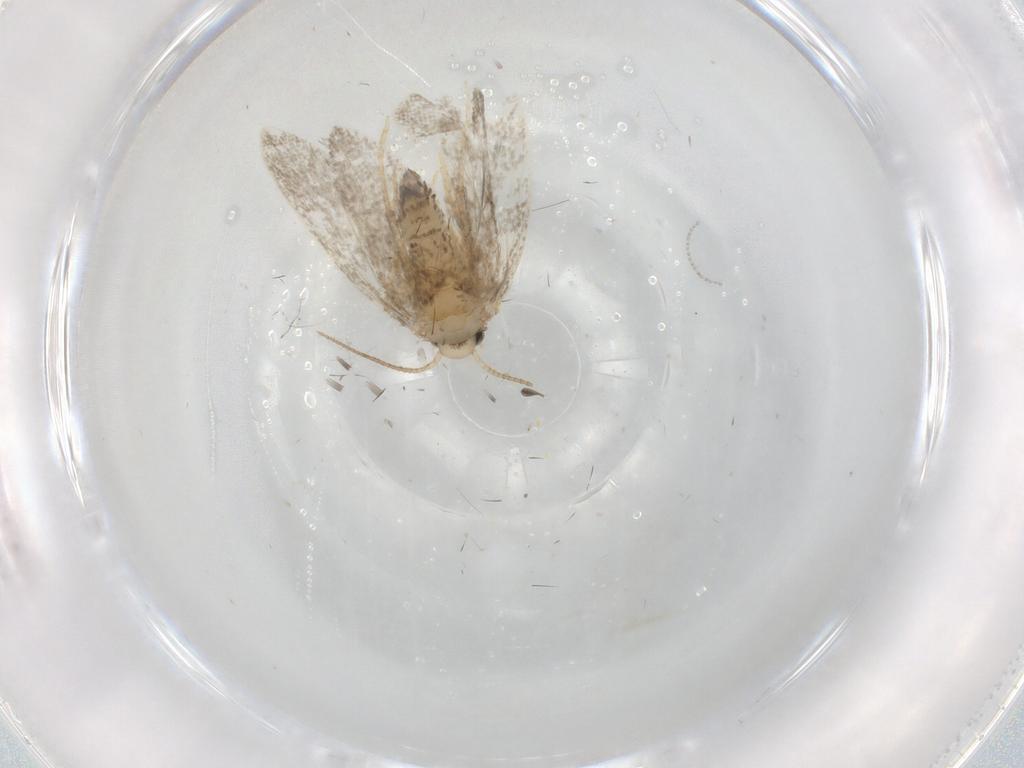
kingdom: Animalia
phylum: Arthropoda
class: Insecta
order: Lepidoptera
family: Psychidae
